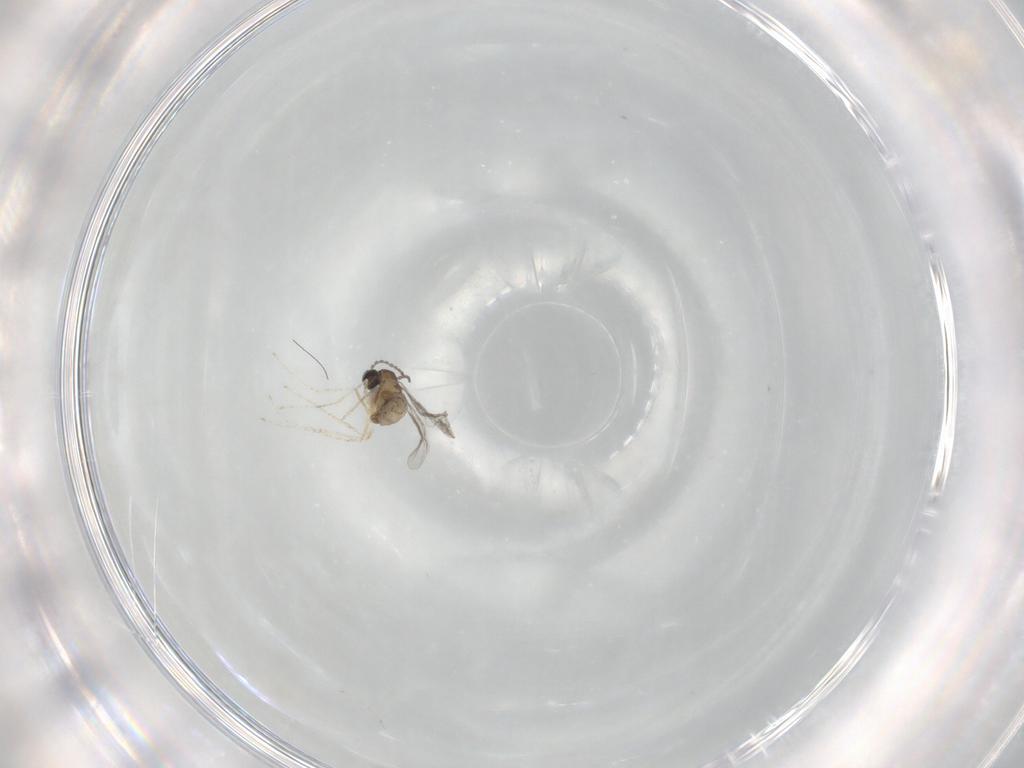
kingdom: Animalia
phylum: Arthropoda
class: Insecta
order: Diptera
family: Cecidomyiidae
